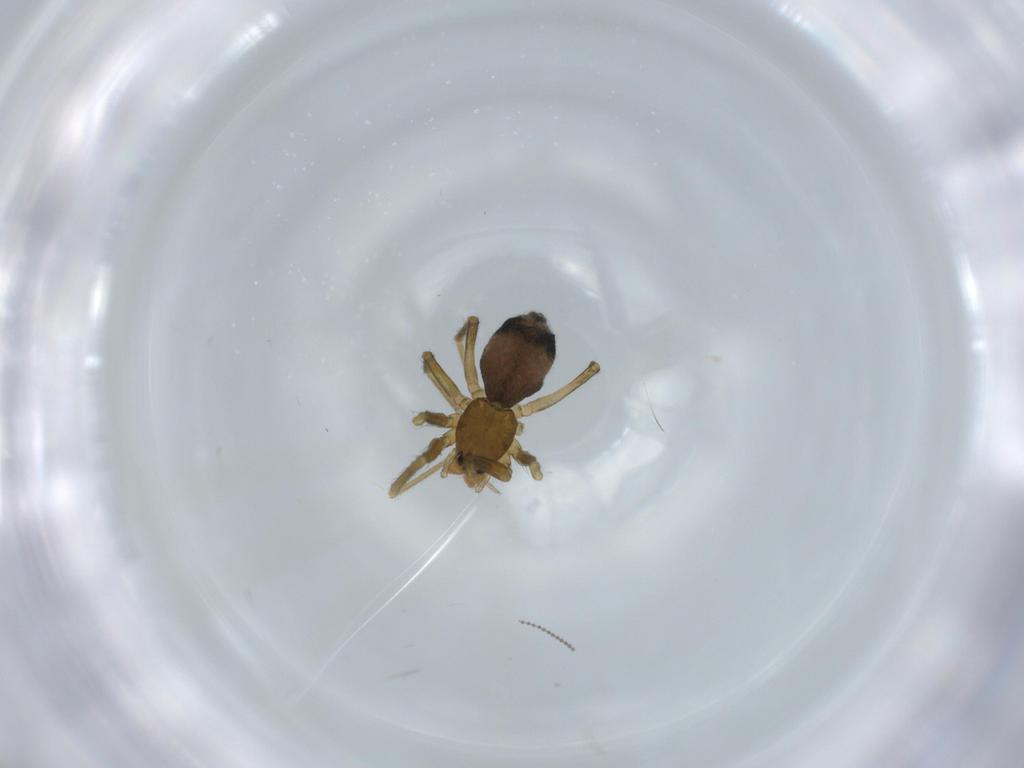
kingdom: Animalia
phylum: Arthropoda
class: Arachnida
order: Araneae
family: Linyphiidae
